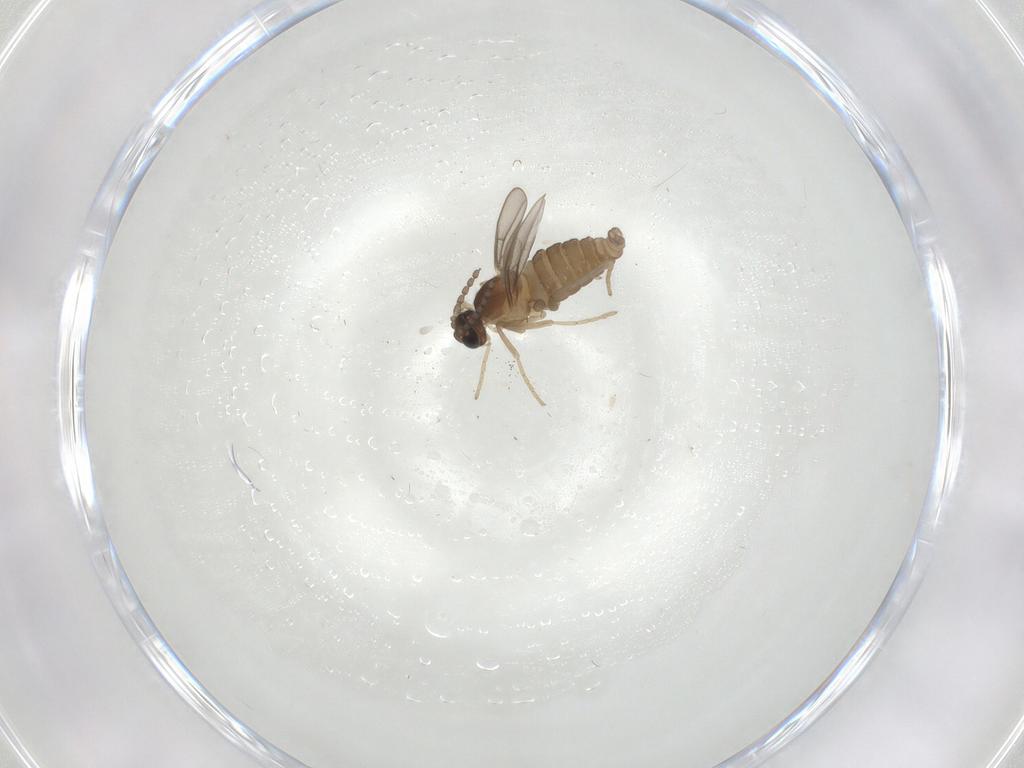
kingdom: Animalia
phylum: Arthropoda
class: Insecta
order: Diptera
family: Cecidomyiidae
